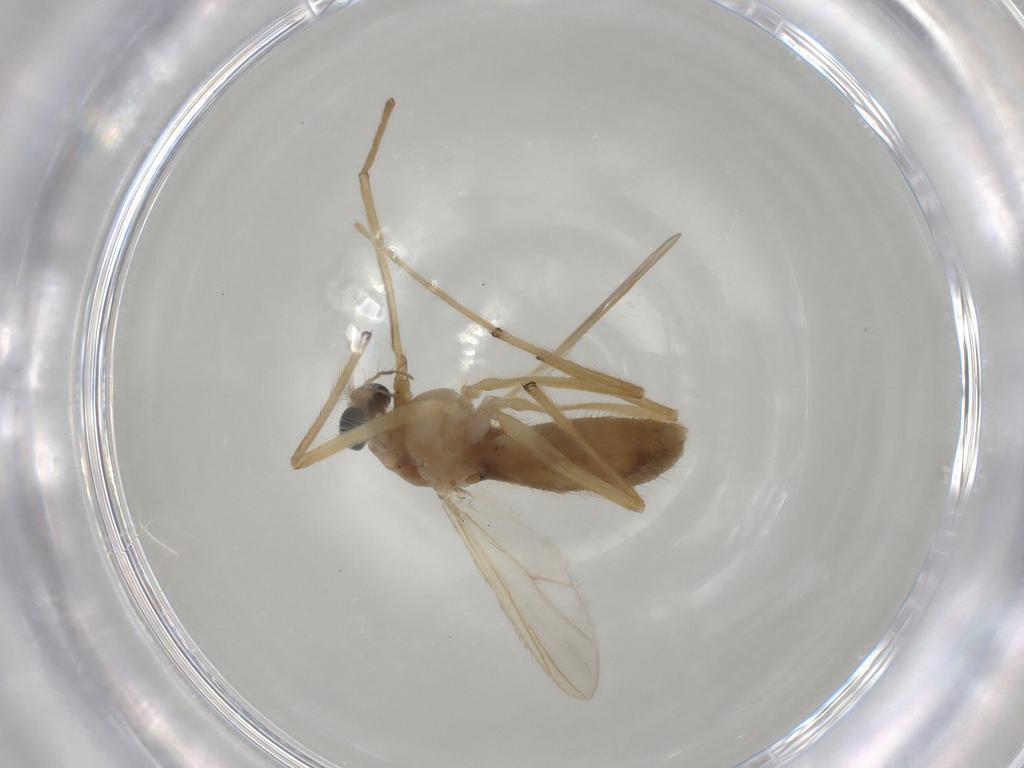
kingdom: Animalia
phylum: Arthropoda
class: Insecta
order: Diptera
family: Chironomidae
